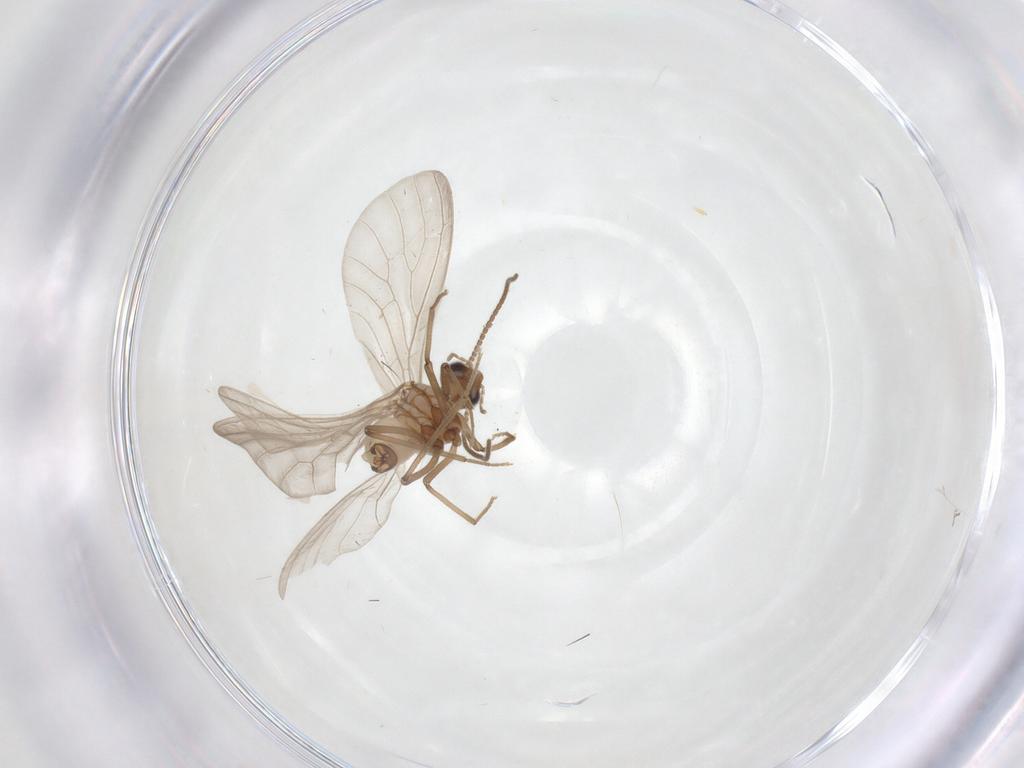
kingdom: Animalia
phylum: Arthropoda
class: Insecta
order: Neuroptera
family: Coniopterygidae
